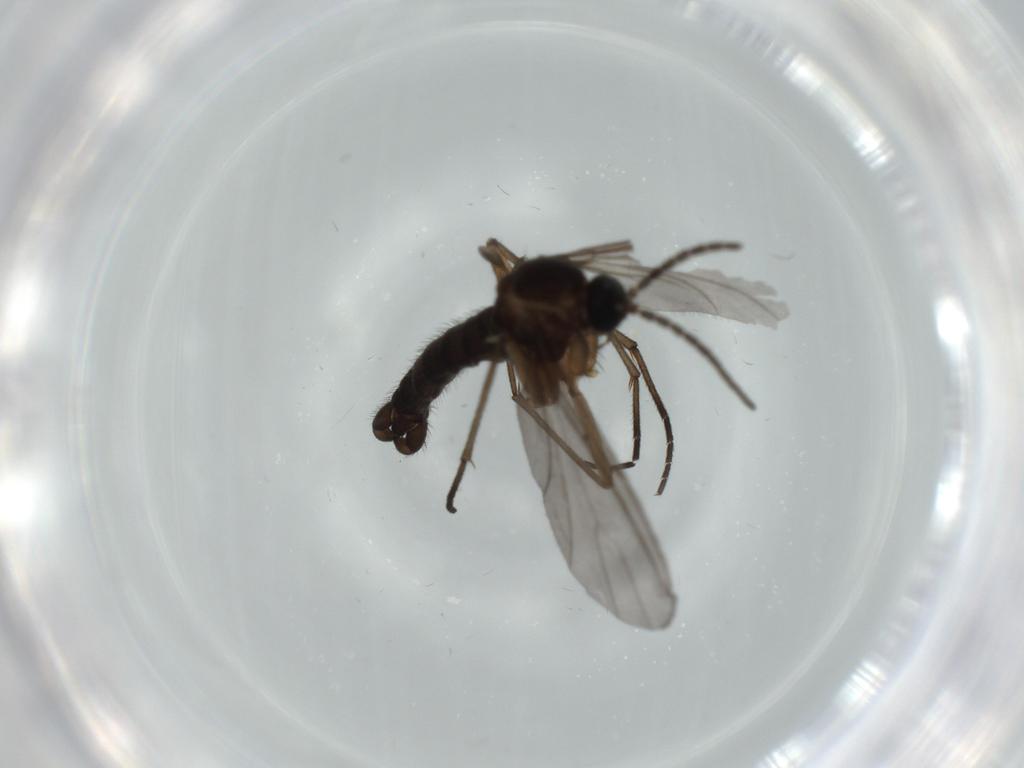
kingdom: Animalia
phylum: Arthropoda
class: Insecta
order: Diptera
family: Sciaridae
